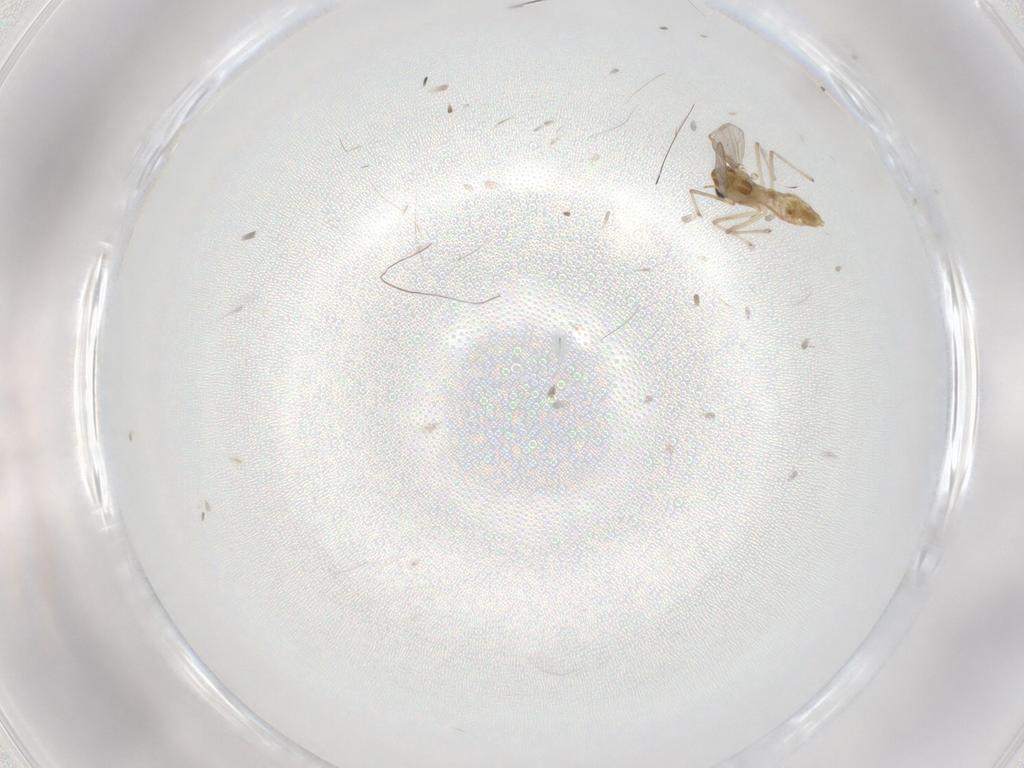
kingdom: Animalia
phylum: Arthropoda
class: Insecta
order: Diptera
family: Chironomidae
